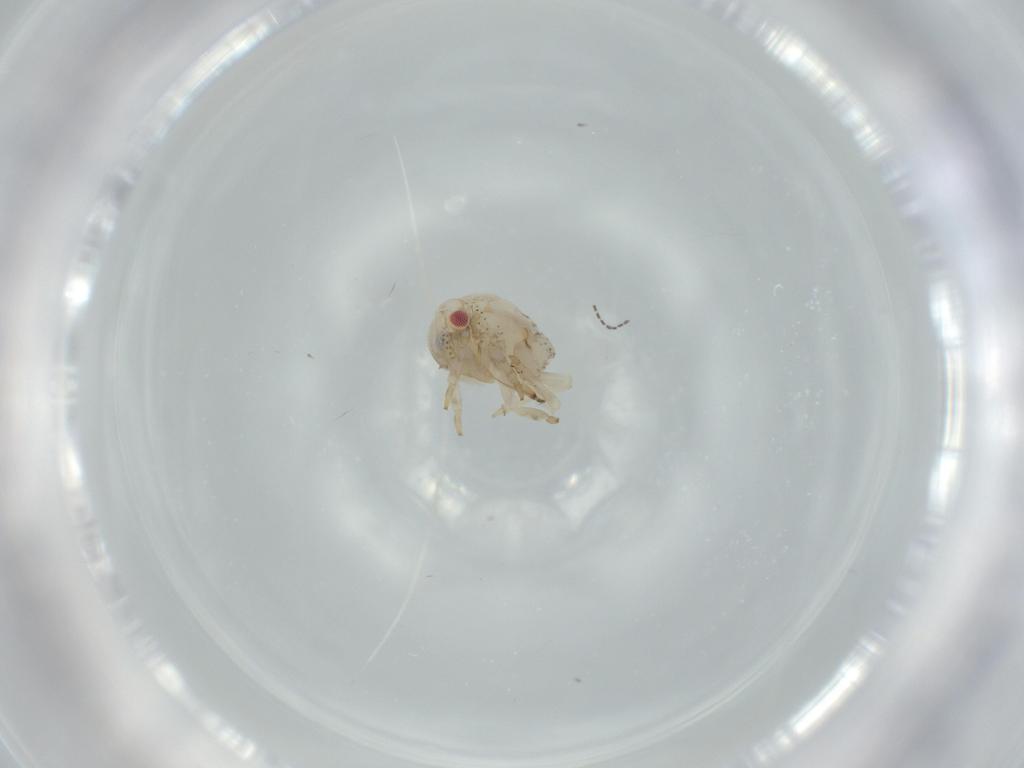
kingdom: Animalia
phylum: Arthropoda
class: Insecta
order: Hemiptera
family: Acanaloniidae
